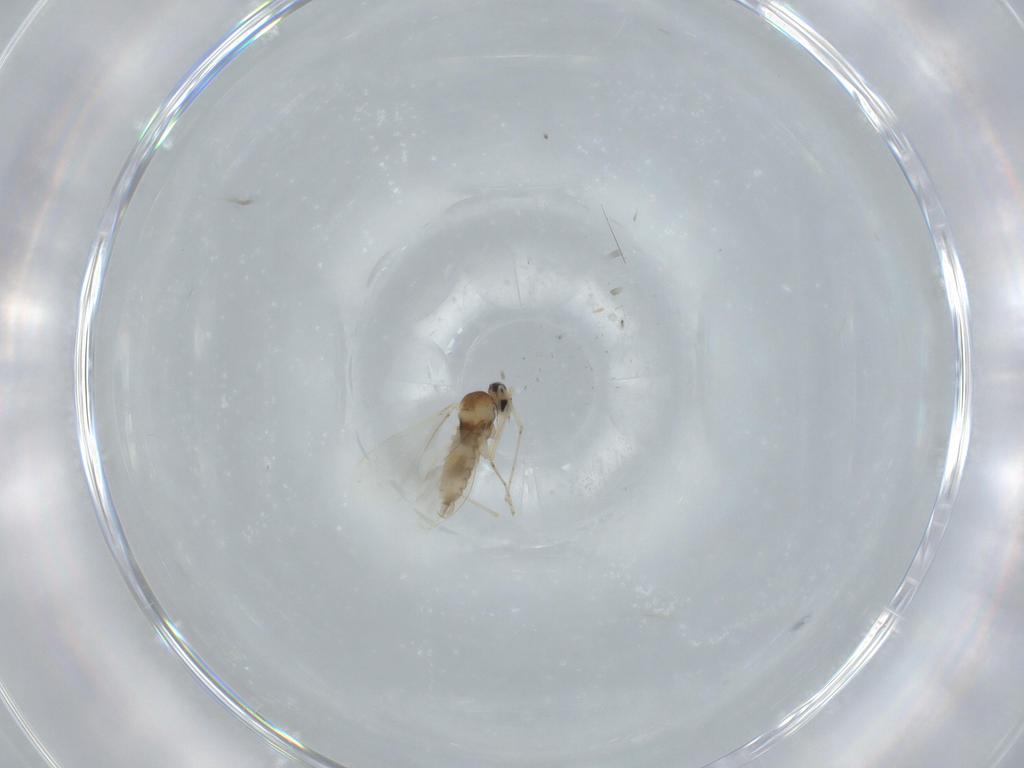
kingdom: Animalia
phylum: Arthropoda
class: Insecta
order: Diptera
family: Cecidomyiidae
